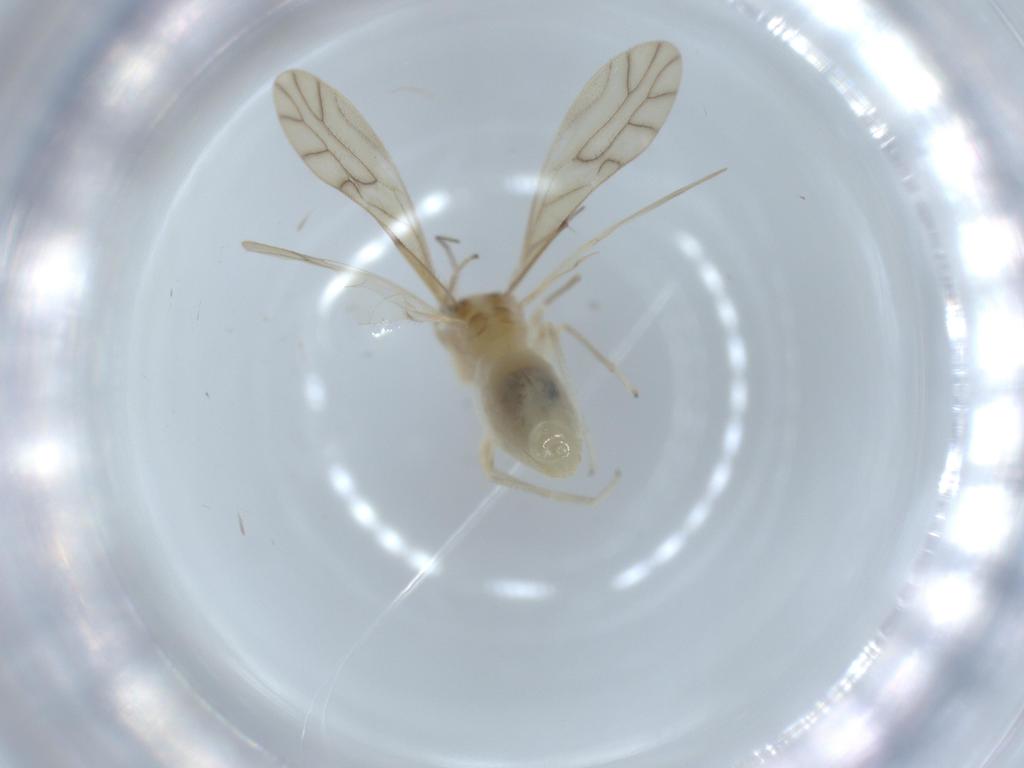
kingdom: Animalia
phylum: Arthropoda
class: Insecta
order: Psocodea
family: Caeciliusidae
